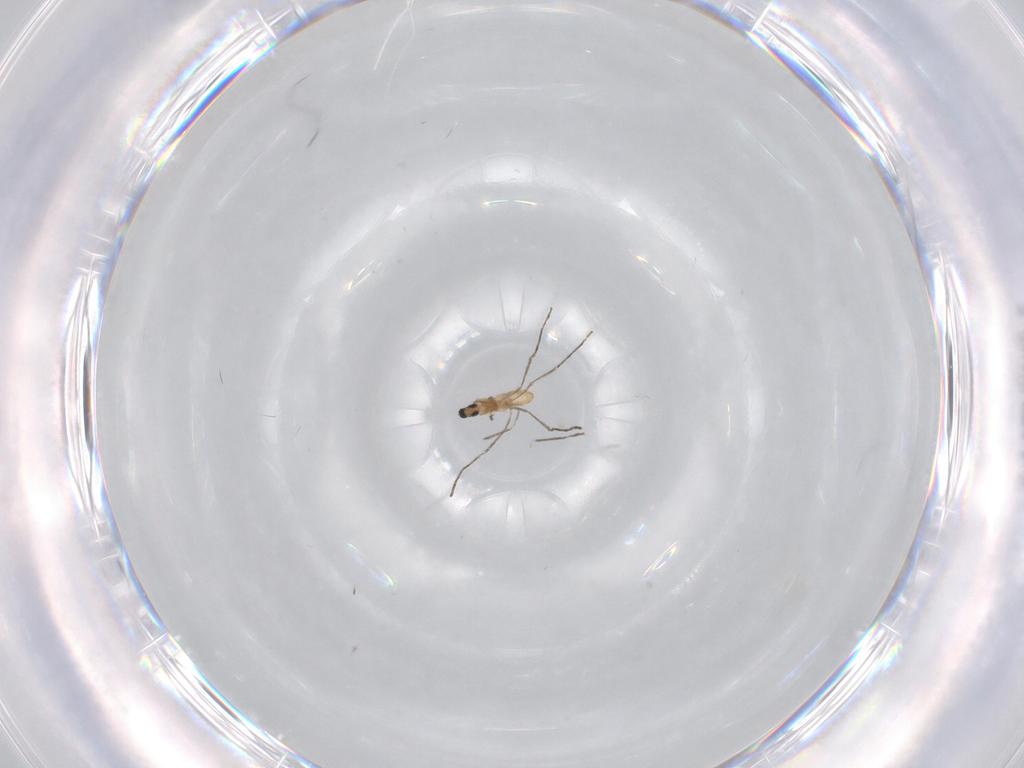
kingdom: Animalia
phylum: Arthropoda
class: Insecta
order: Diptera
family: Cecidomyiidae
